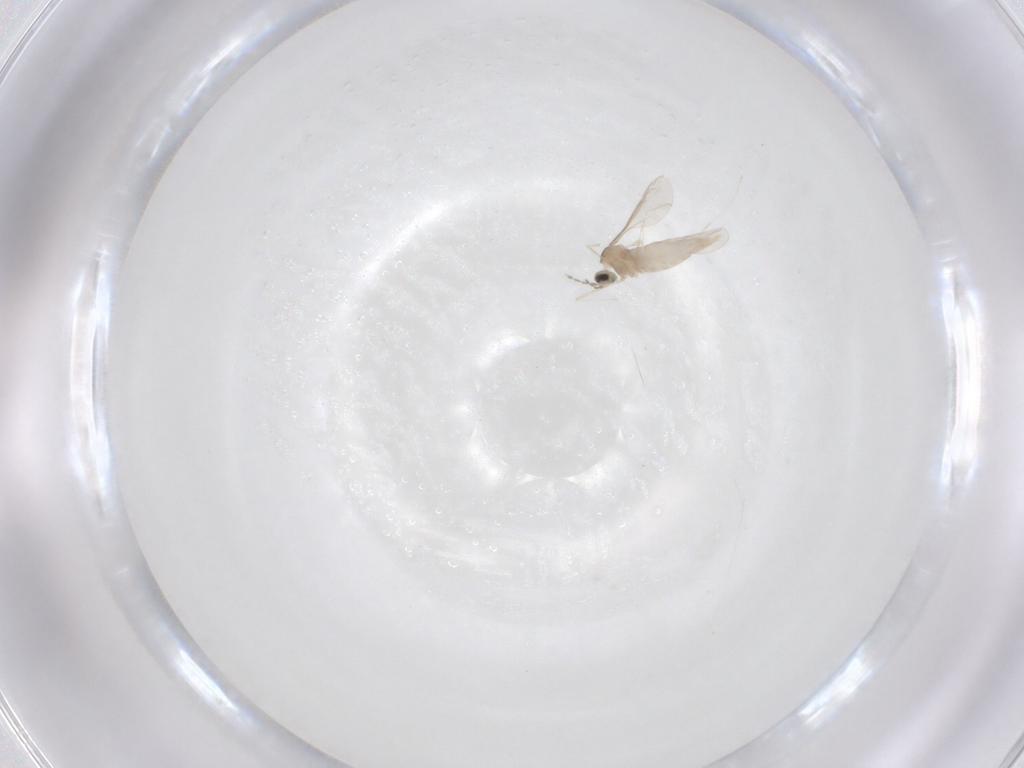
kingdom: Animalia
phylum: Arthropoda
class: Insecta
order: Diptera
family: Cecidomyiidae
